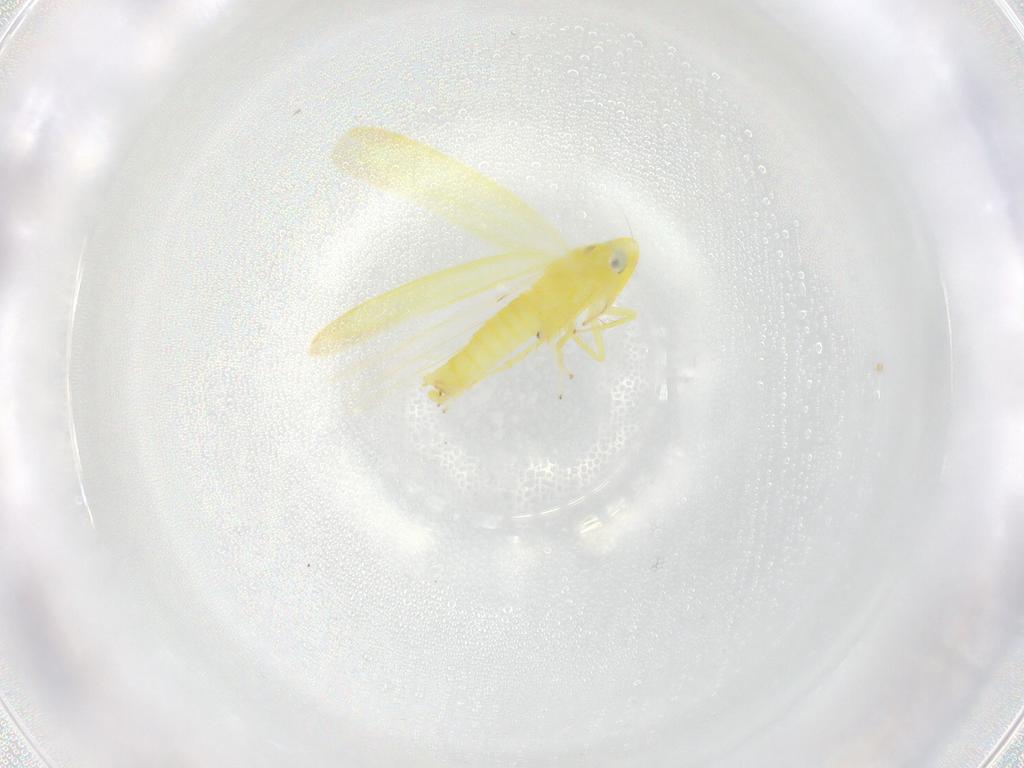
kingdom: Animalia
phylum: Arthropoda
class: Insecta
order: Hemiptera
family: Cicadellidae
